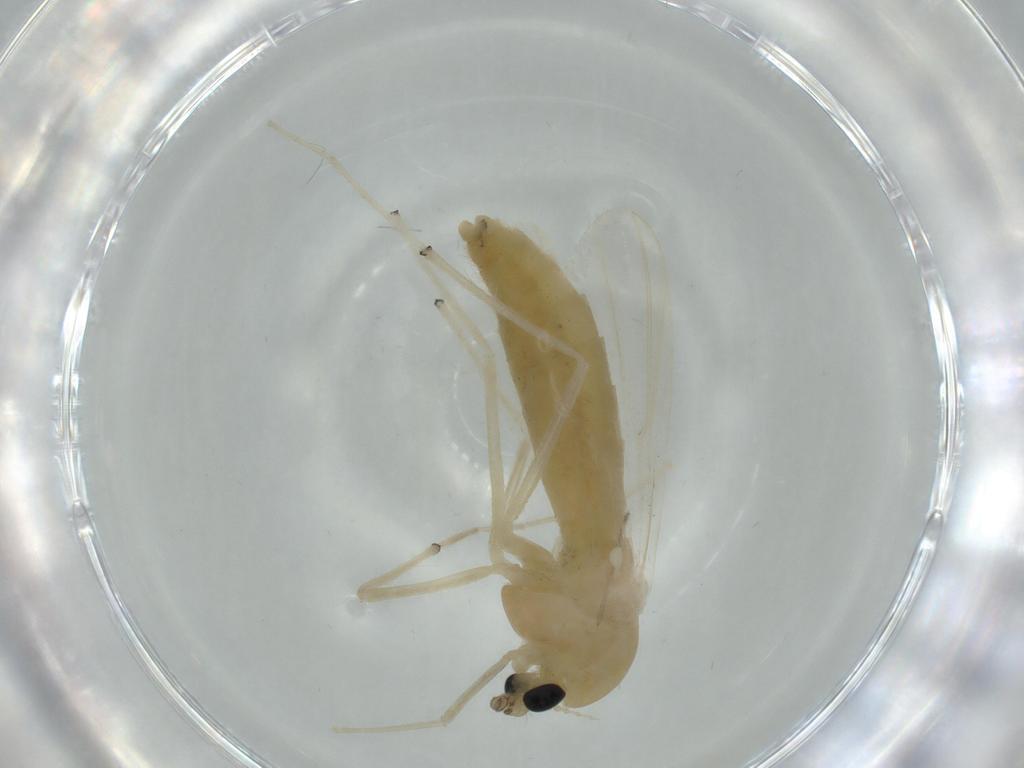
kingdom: Animalia
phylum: Arthropoda
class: Insecta
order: Diptera
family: Chironomidae
